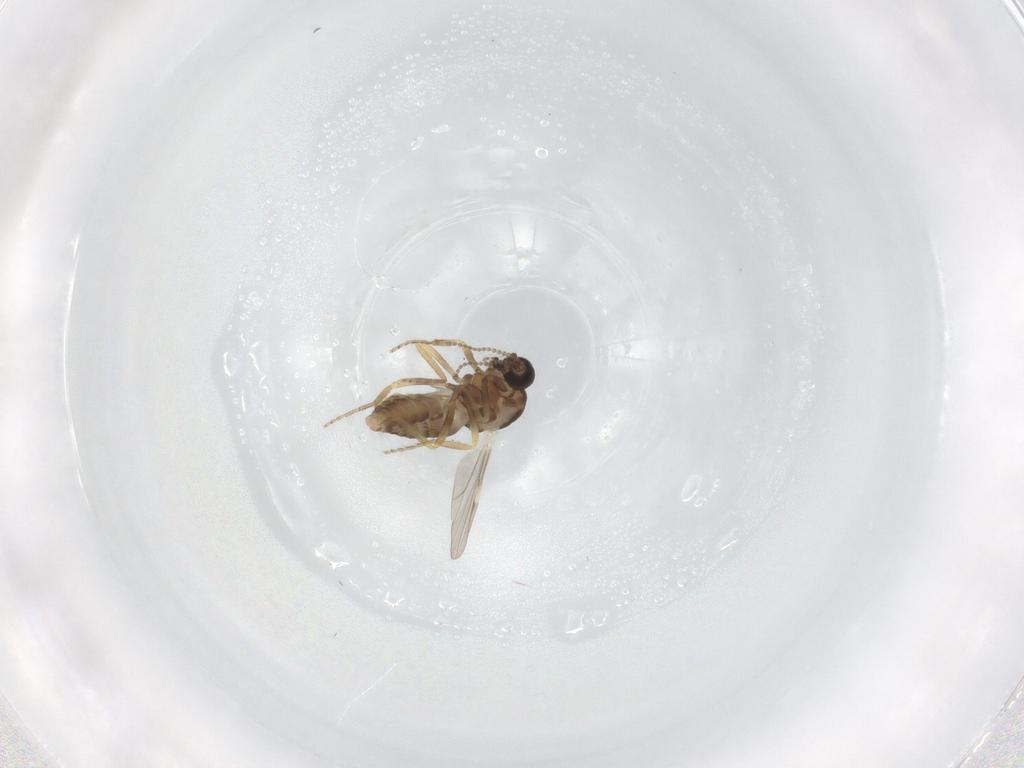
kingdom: Animalia
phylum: Arthropoda
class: Insecta
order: Diptera
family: Ceratopogonidae
